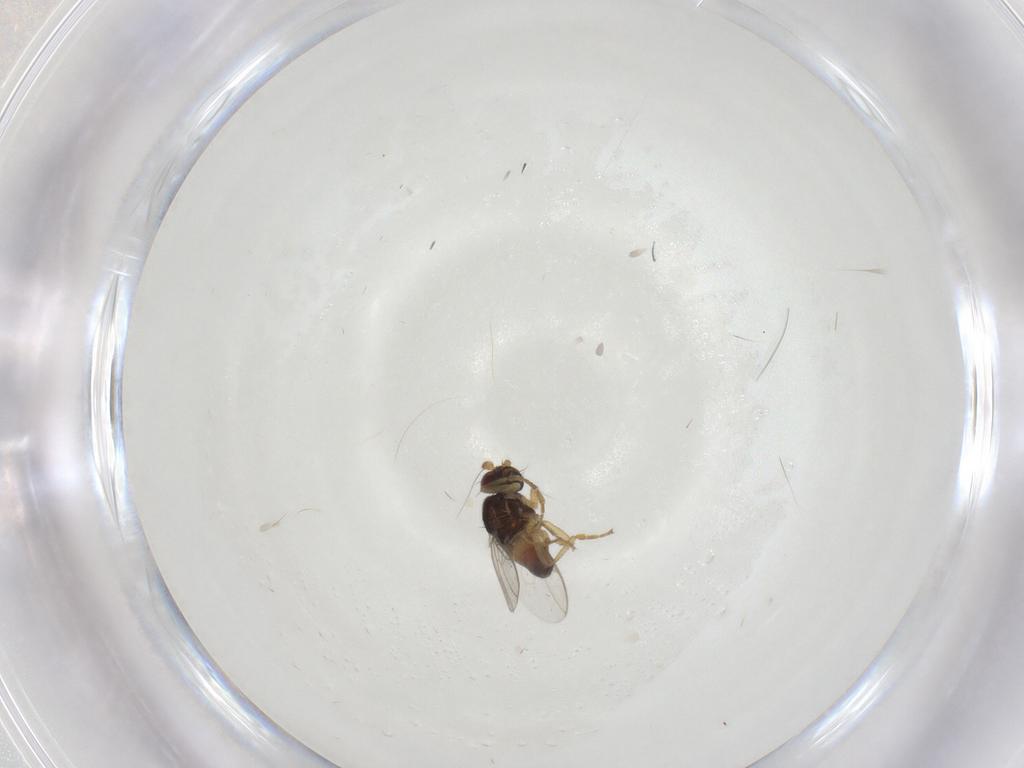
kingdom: Animalia
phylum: Arthropoda
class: Insecta
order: Diptera
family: Sphaeroceridae
